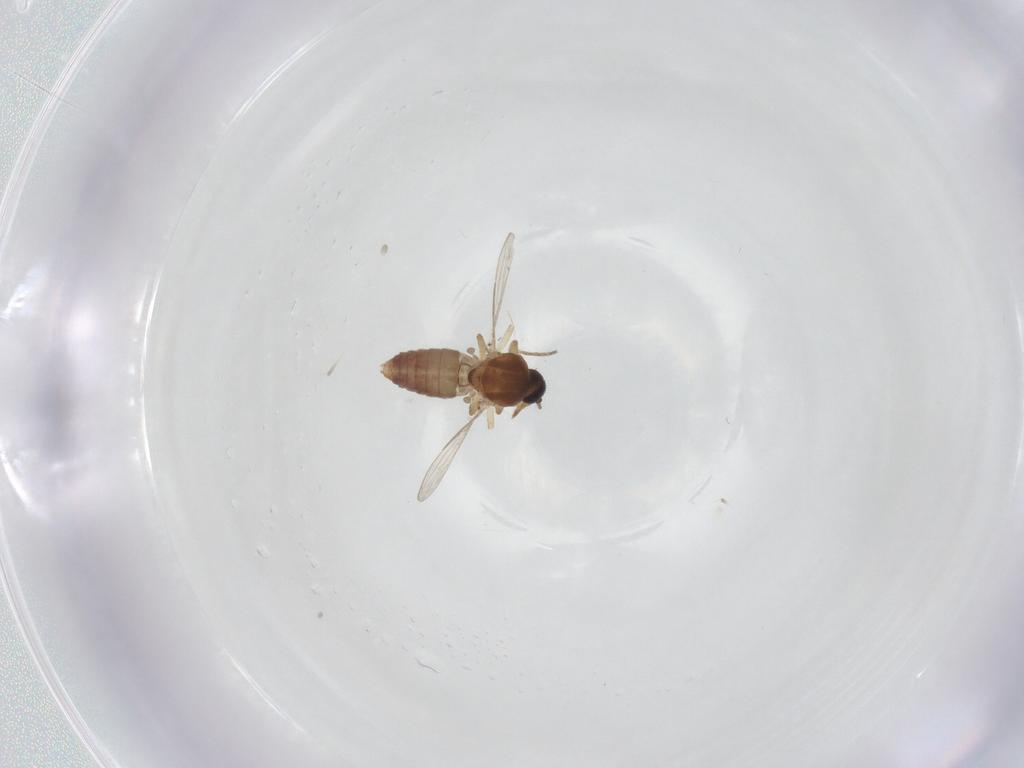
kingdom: Animalia
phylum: Arthropoda
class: Insecta
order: Diptera
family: Ceratopogonidae
